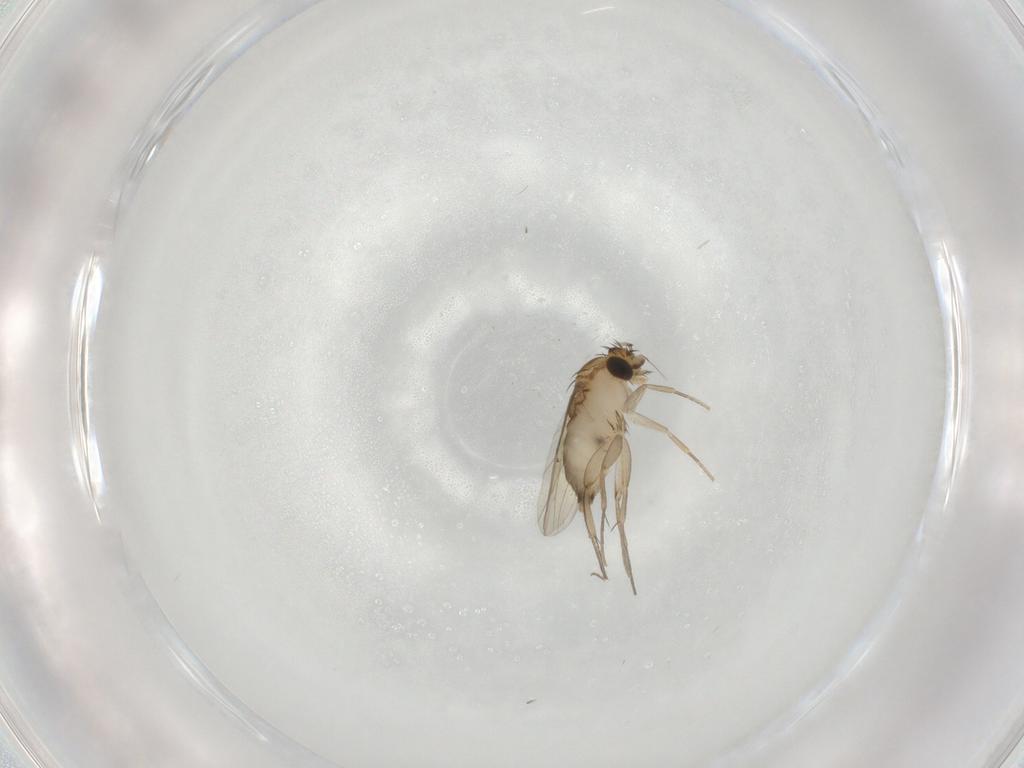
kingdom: Animalia
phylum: Arthropoda
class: Insecta
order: Diptera
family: Phoridae
